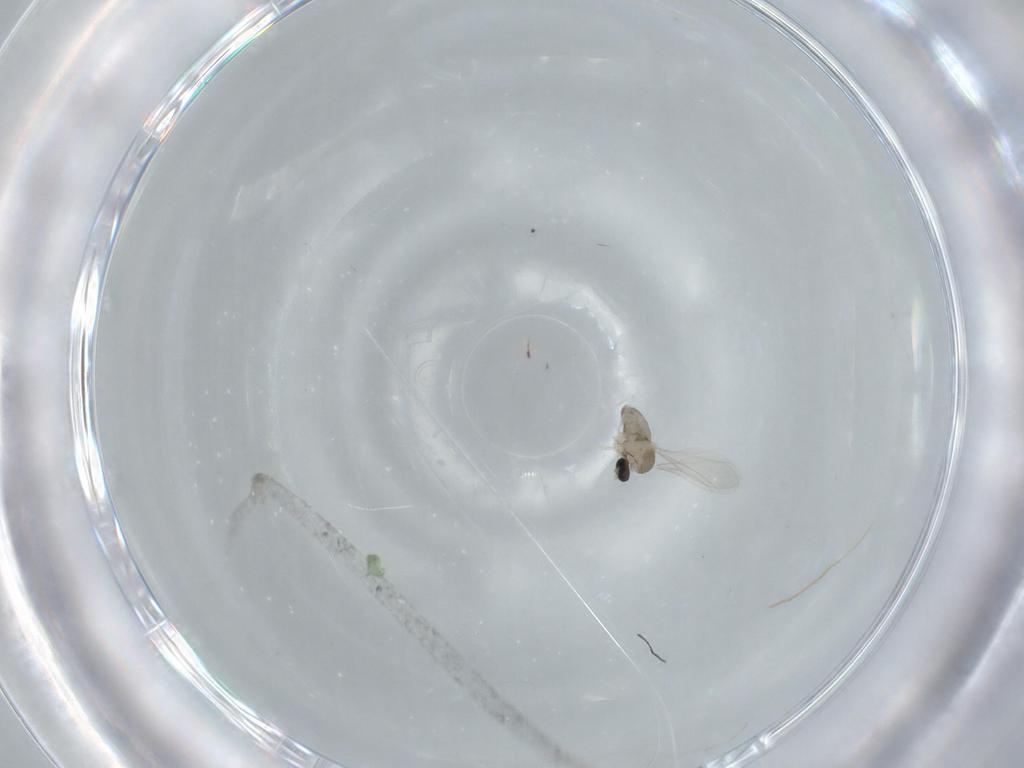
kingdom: Animalia
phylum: Arthropoda
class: Insecta
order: Diptera
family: Cecidomyiidae
